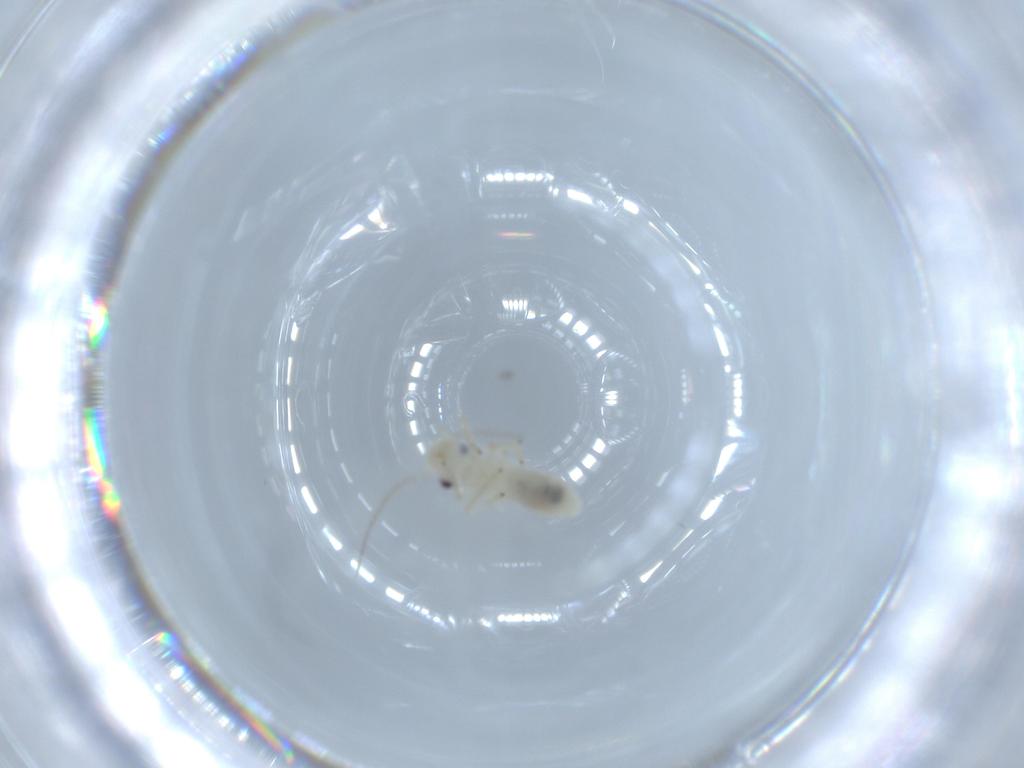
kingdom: Animalia
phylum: Arthropoda
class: Insecta
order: Psocodea
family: Caeciliusidae
